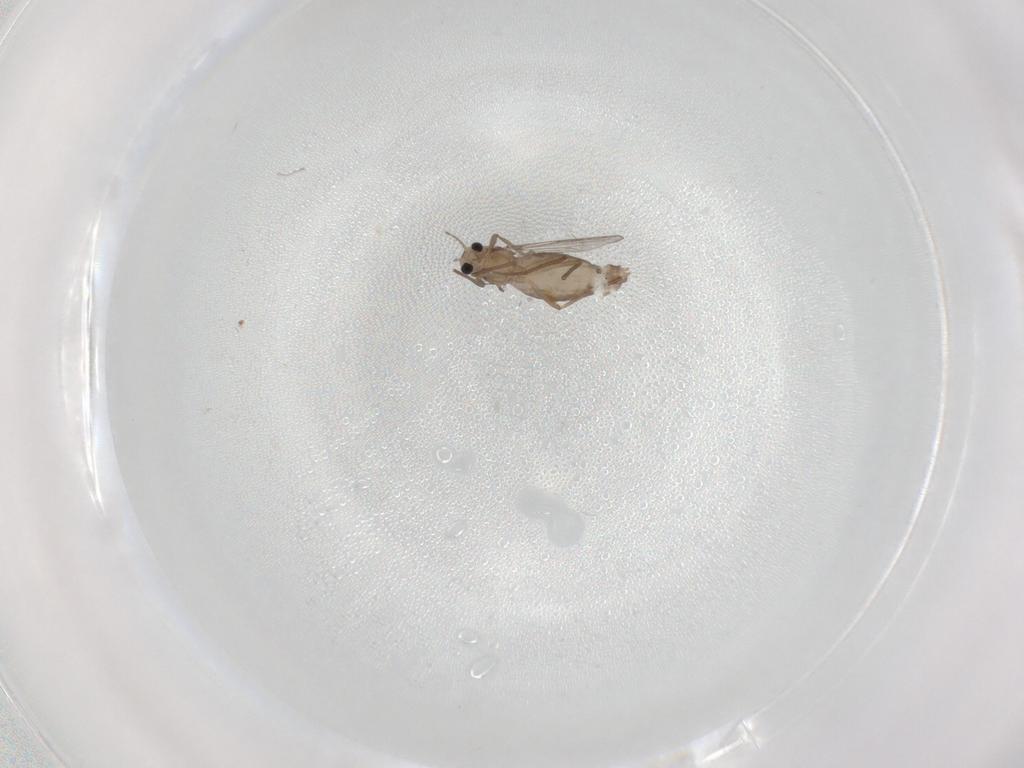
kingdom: Animalia
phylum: Arthropoda
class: Insecta
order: Diptera
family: Chironomidae
